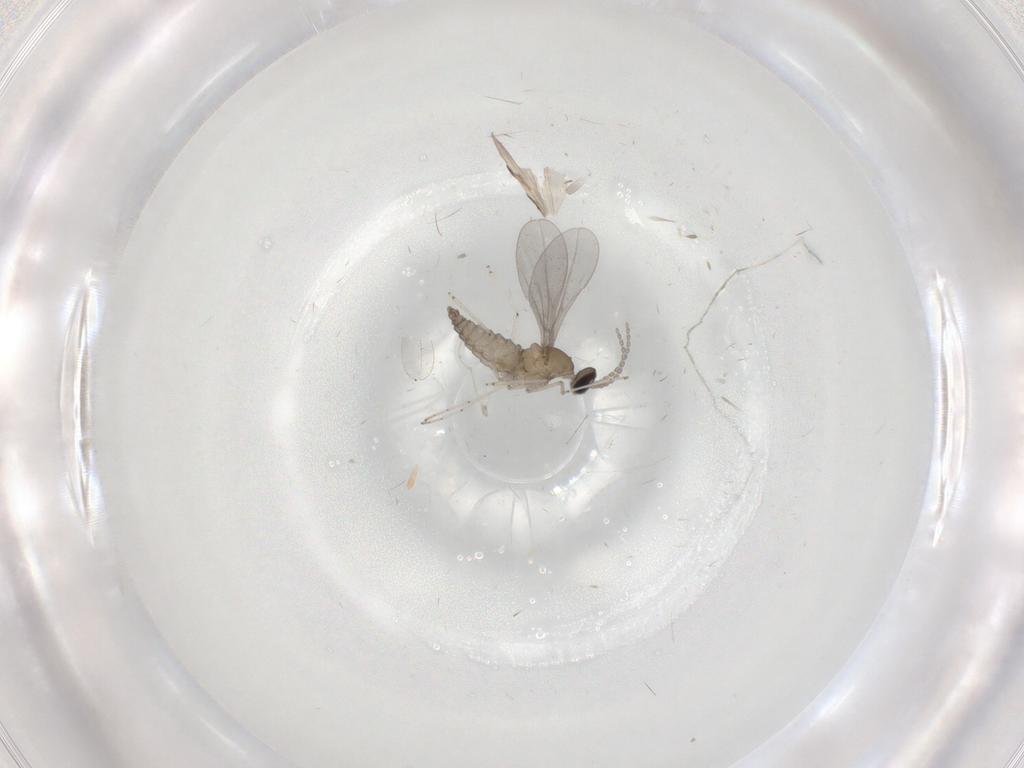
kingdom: Animalia
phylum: Arthropoda
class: Insecta
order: Diptera
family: Cecidomyiidae
